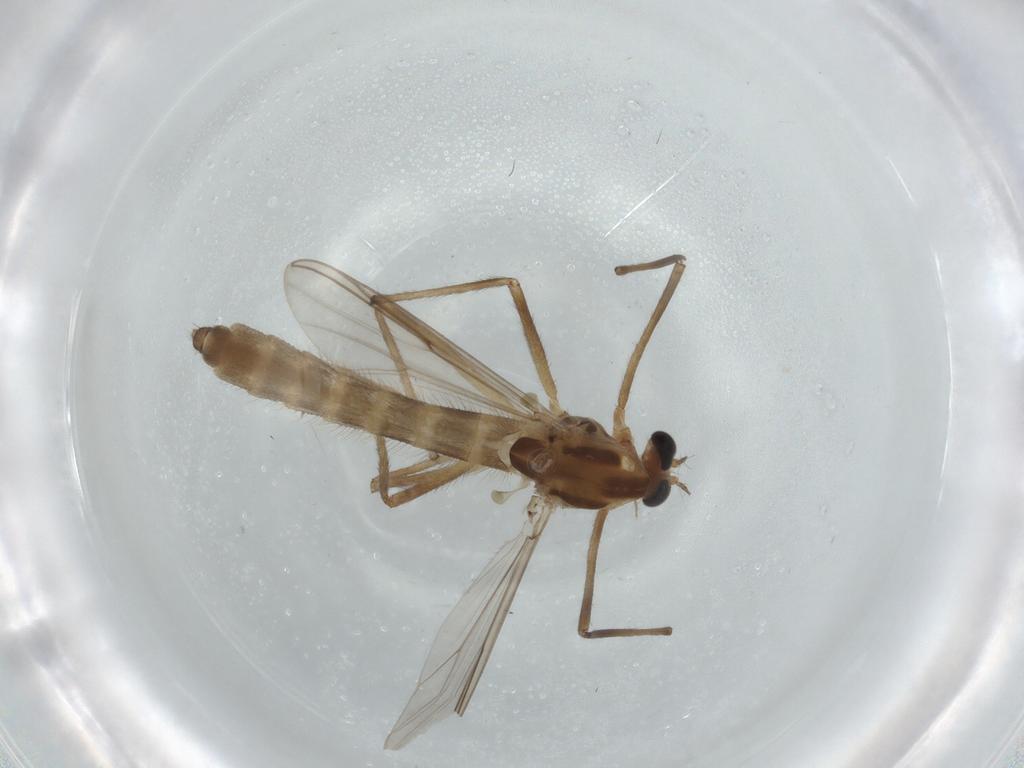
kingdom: Animalia
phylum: Arthropoda
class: Insecta
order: Diptera
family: Chironomidae
